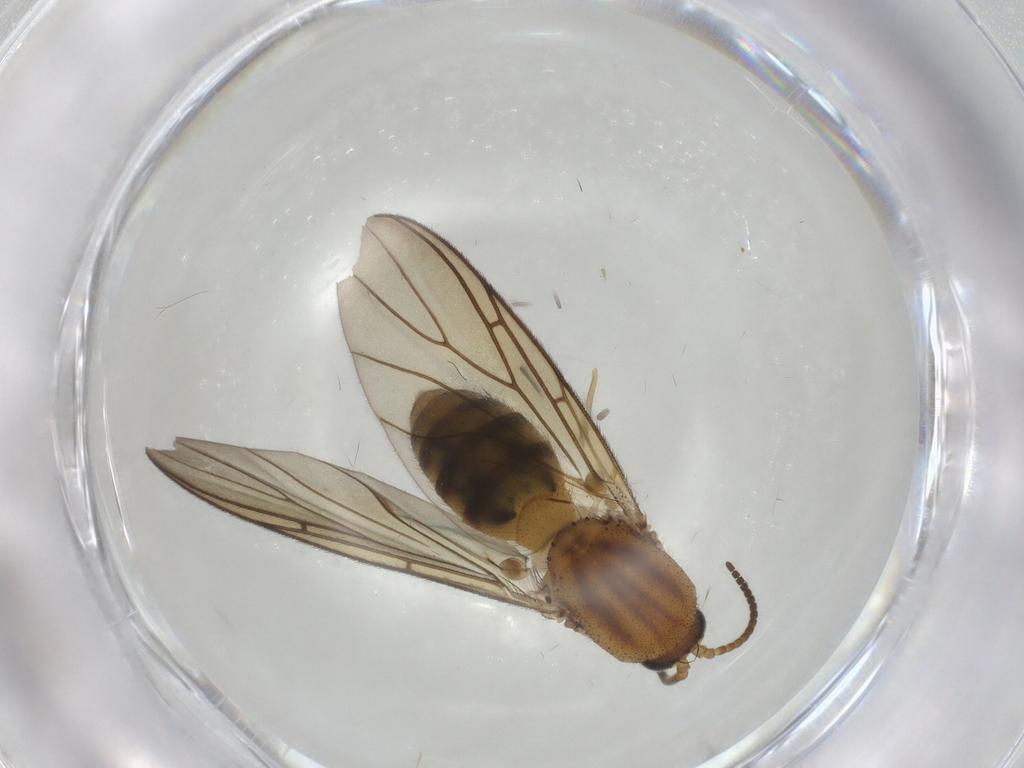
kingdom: Animalia
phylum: Arthropoda
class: Insecta
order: Diptera
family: Mycetophilidae
